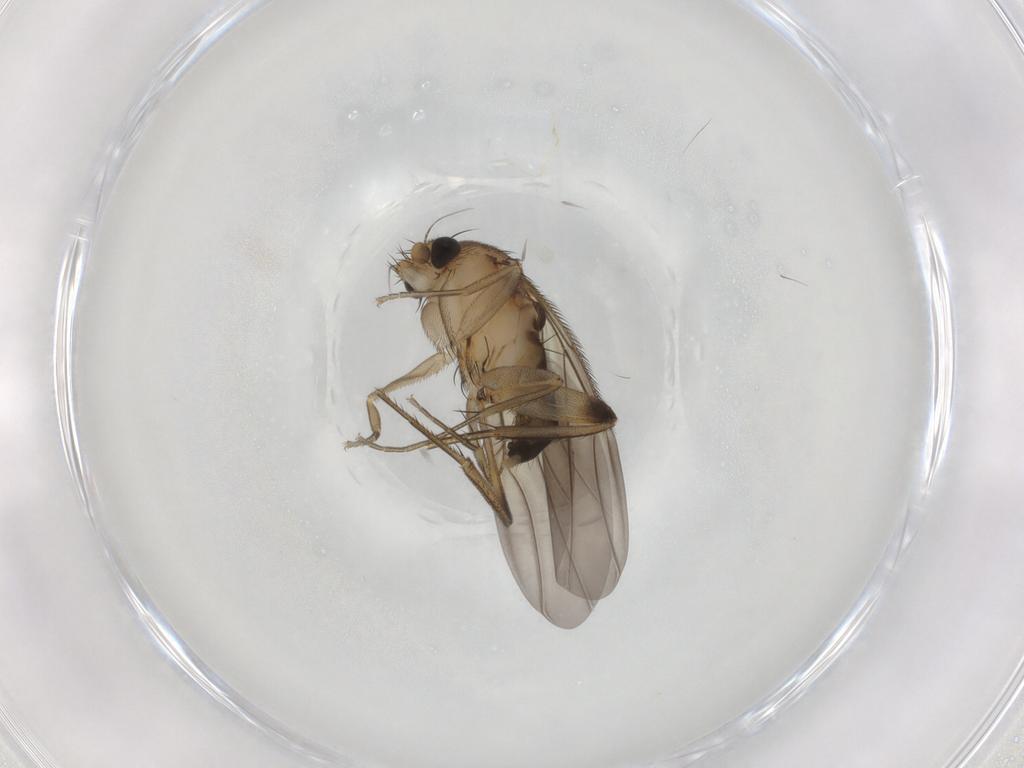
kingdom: Animalia
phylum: Arthropoda
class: Insecta
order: Diptera
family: Phoridae
